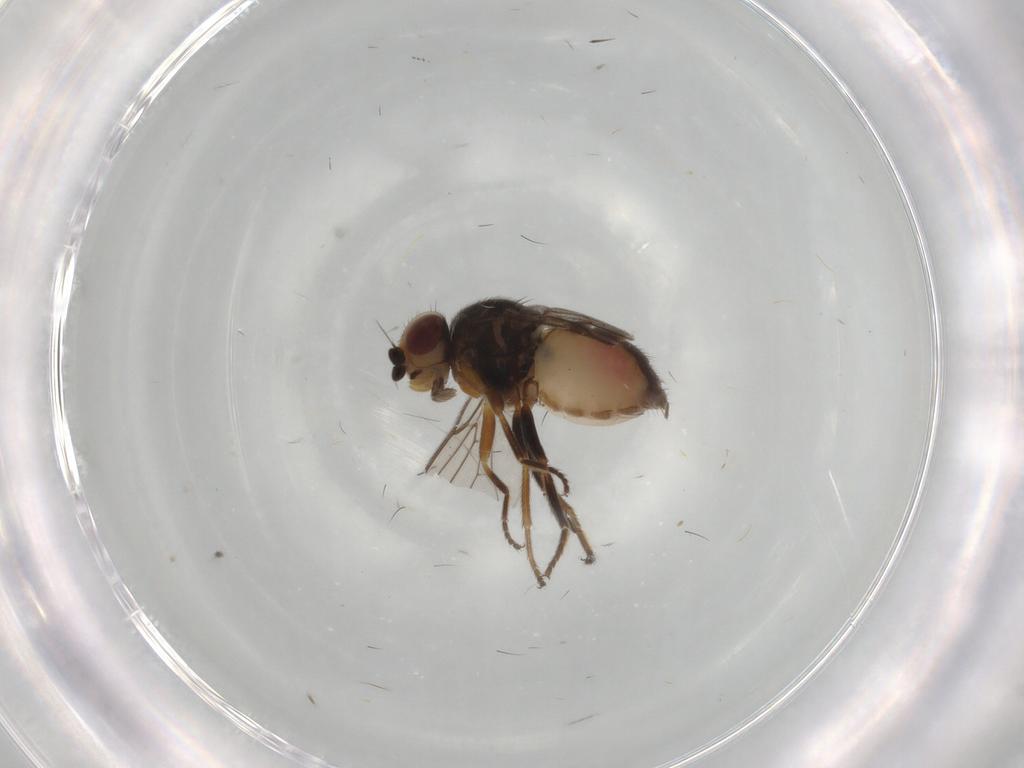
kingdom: Animalia
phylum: Arthropoda
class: Insecta
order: Diptera
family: Chloropidae
